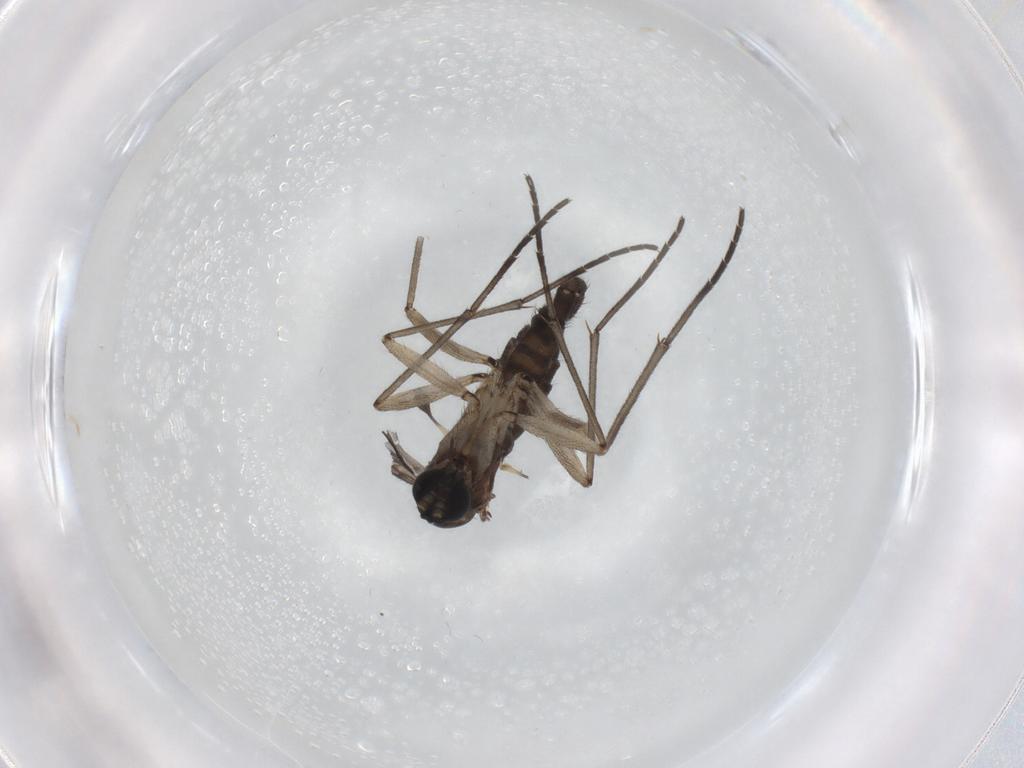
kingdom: Animalia
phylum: Arthropoda
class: Insecta
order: Diptera
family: Sciaridae
